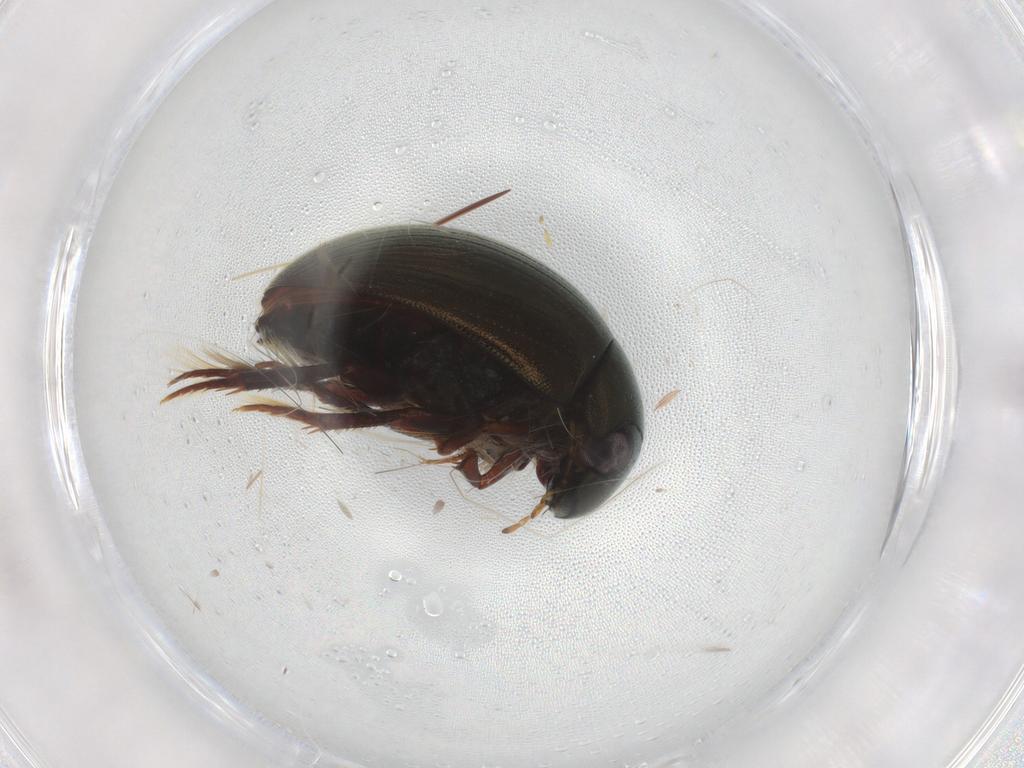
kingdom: Animalia
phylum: Arthropoda
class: Insecta
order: Coleoptera
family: Staphylinidae
